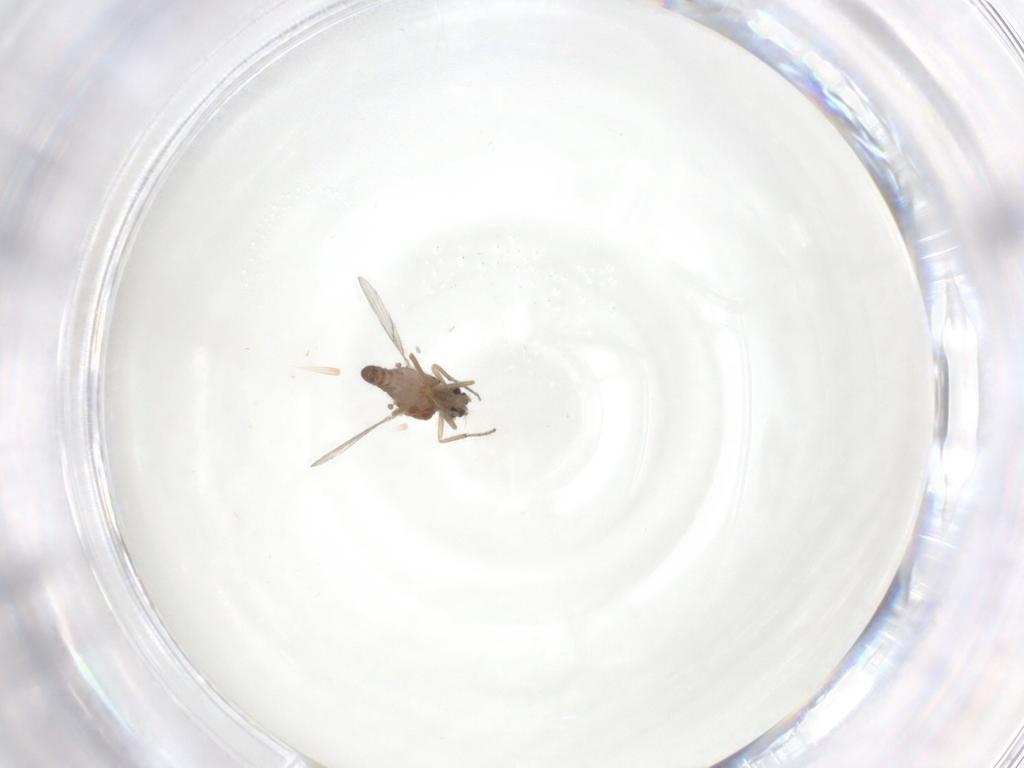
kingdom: Animalia
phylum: Arthropoda
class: Insecta
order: Diptera
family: Ceratopogonidae
